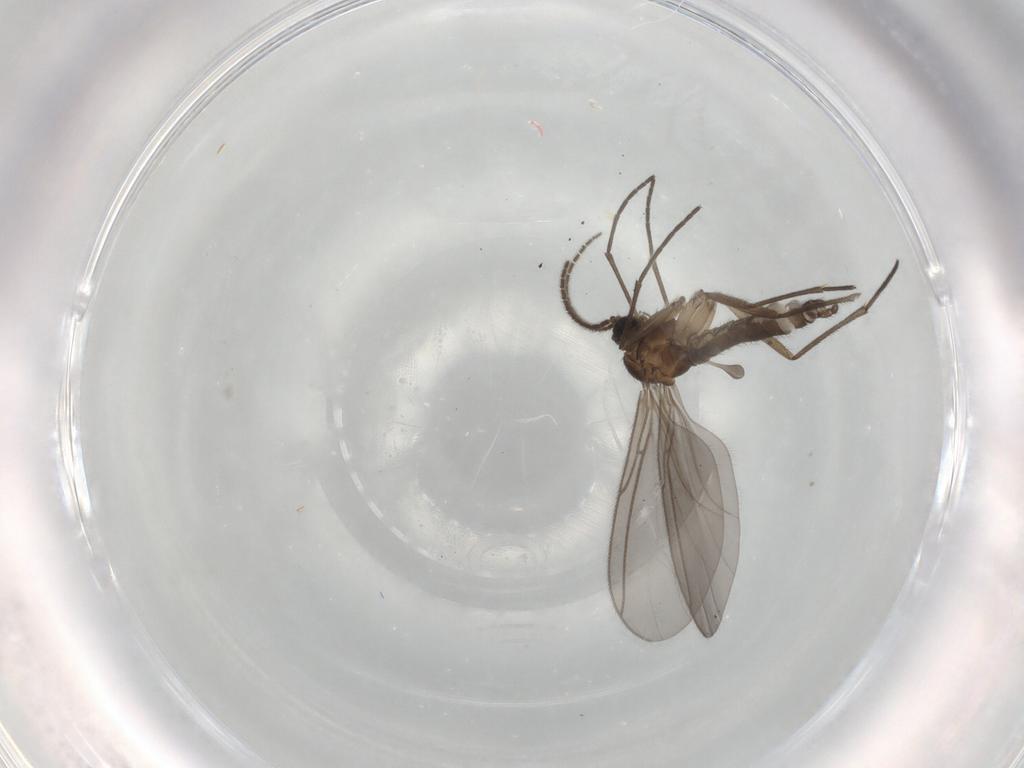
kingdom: Animalia
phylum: Arthropoda
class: Insecta
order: Diptera
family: Sciaridae
